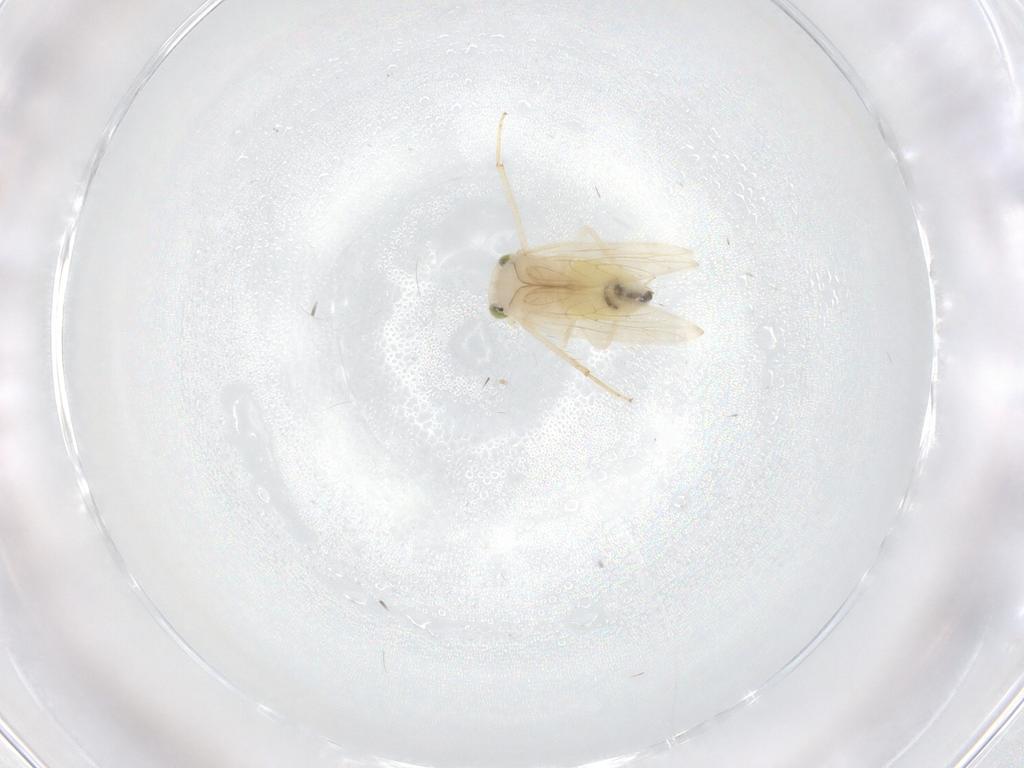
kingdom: Animalia
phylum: Arthropoda
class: Insecta
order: Psocodea
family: Lepidopsocidae
